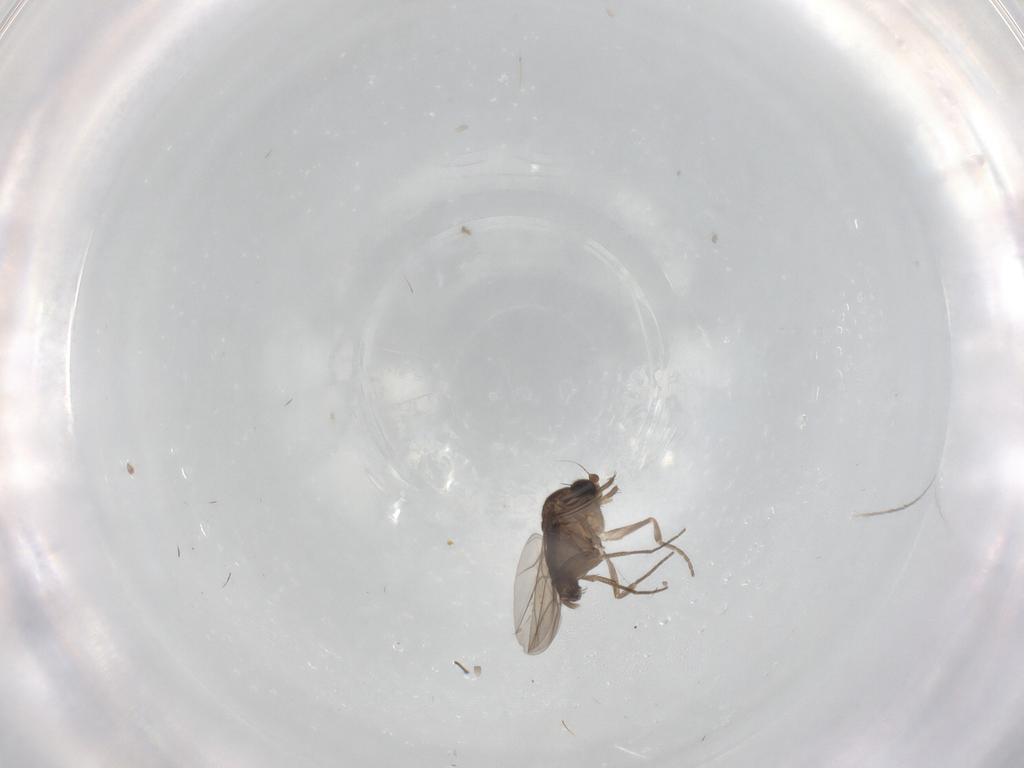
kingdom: Animalia
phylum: Arthropoda
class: Insecta
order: Diptera
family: Phoridae
